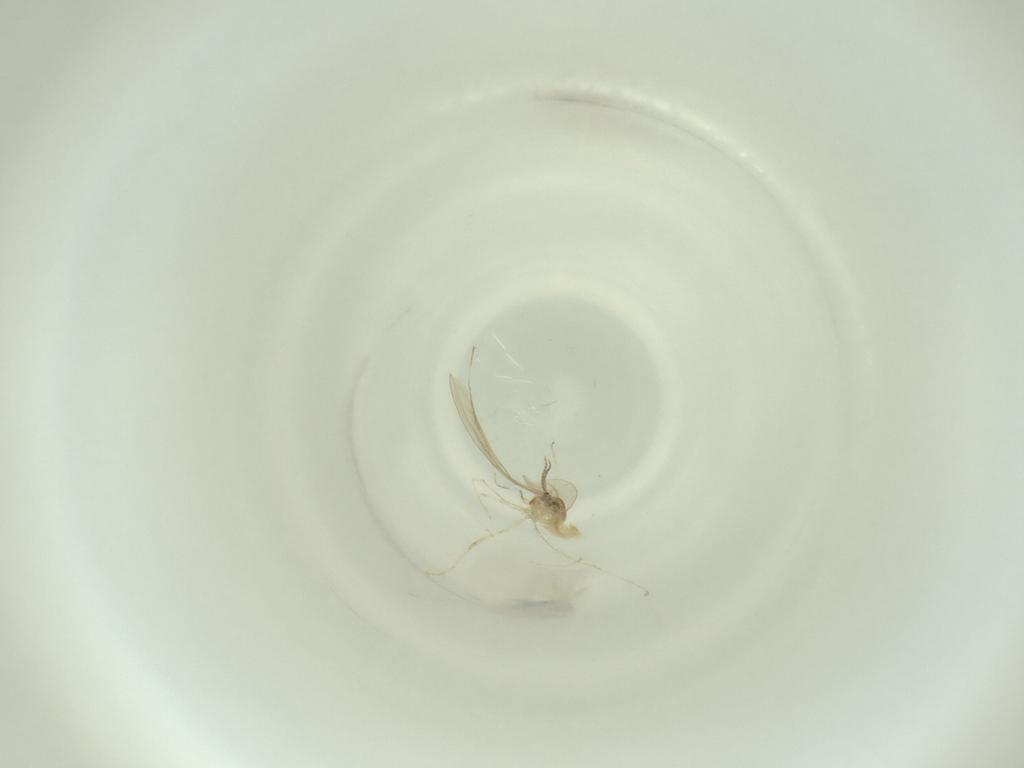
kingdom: Animalia
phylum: Arthropoda
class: Insecta
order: Diptera
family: Cecidomyiidae
